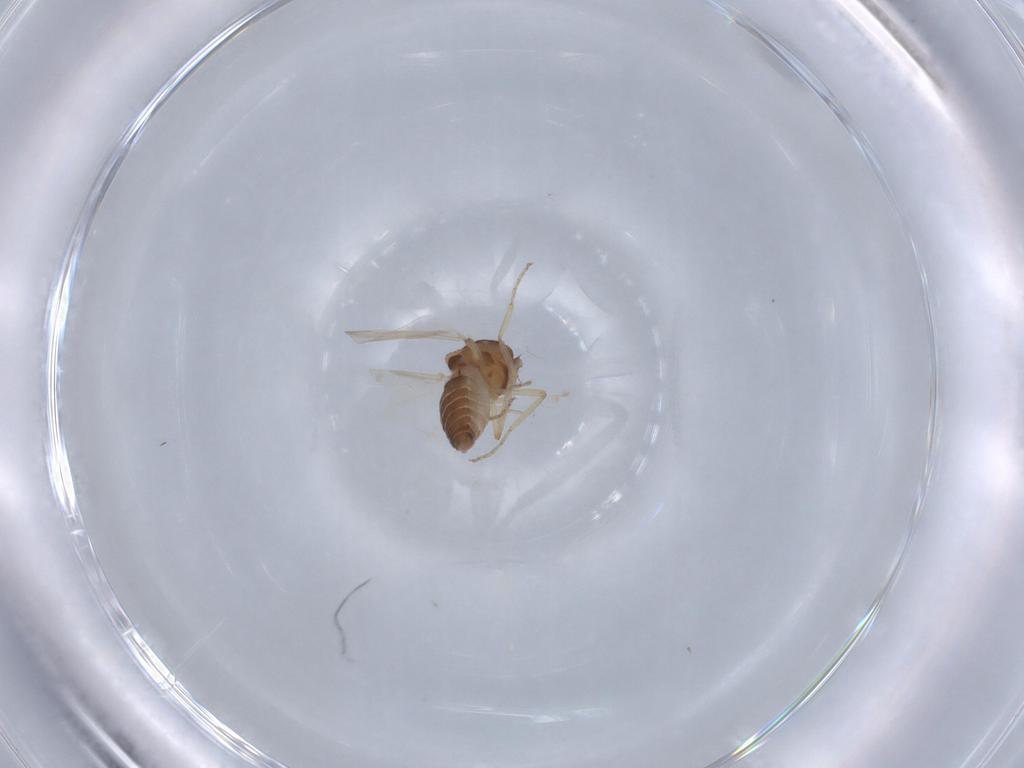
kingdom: Animalia
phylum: Arthropoda
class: Insecta
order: Diptera
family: Ceratopogonidae
